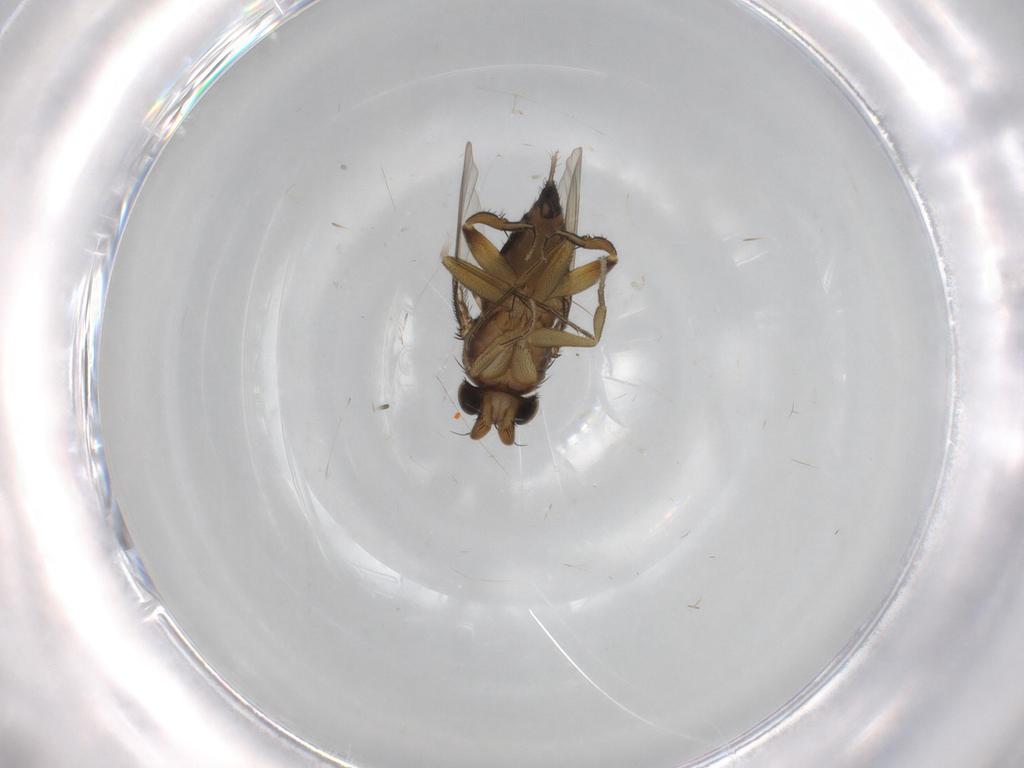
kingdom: Animalia
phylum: Arthropoda
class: Insecta
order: Diptera
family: Phoridae
